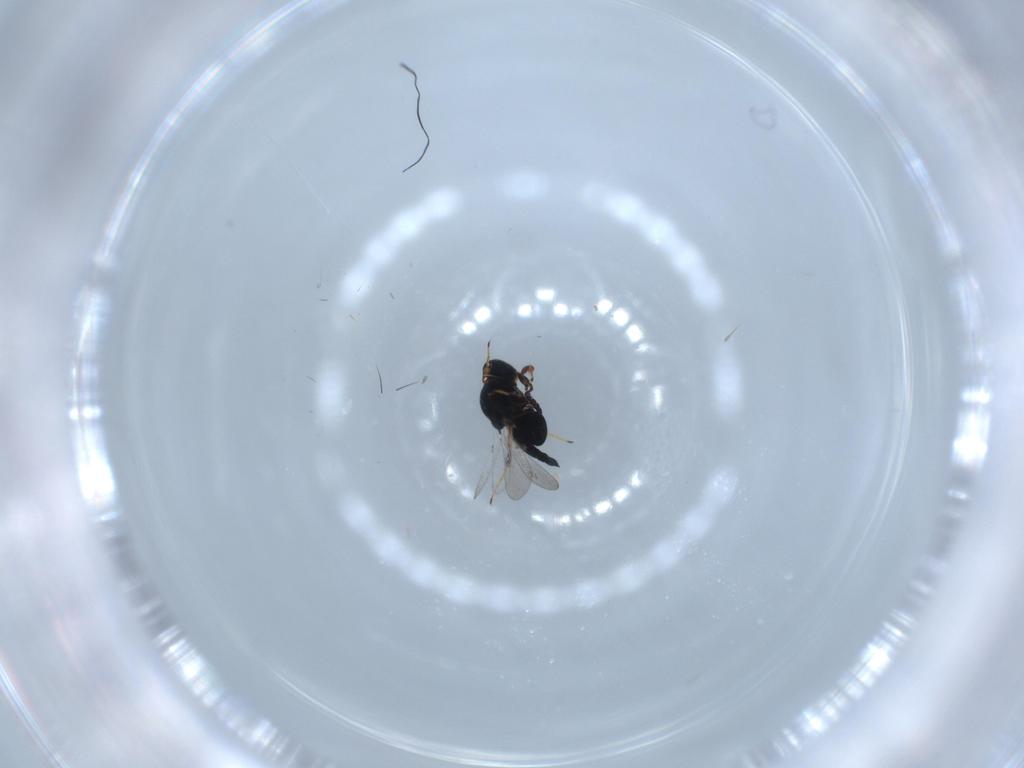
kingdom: Animalia
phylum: Arthropoda
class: Insecta
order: Hymenoptera
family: Platygastridae
